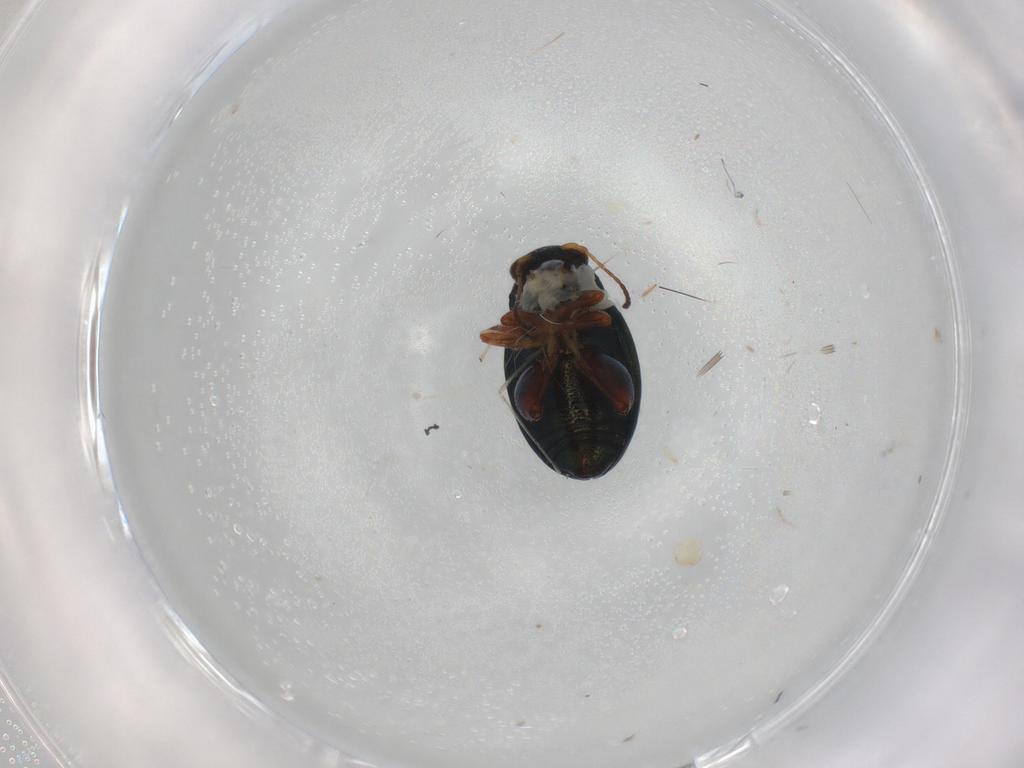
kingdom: Animalia
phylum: Arthropoda
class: Insecta
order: Coleoptera
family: Chrysomelidae
